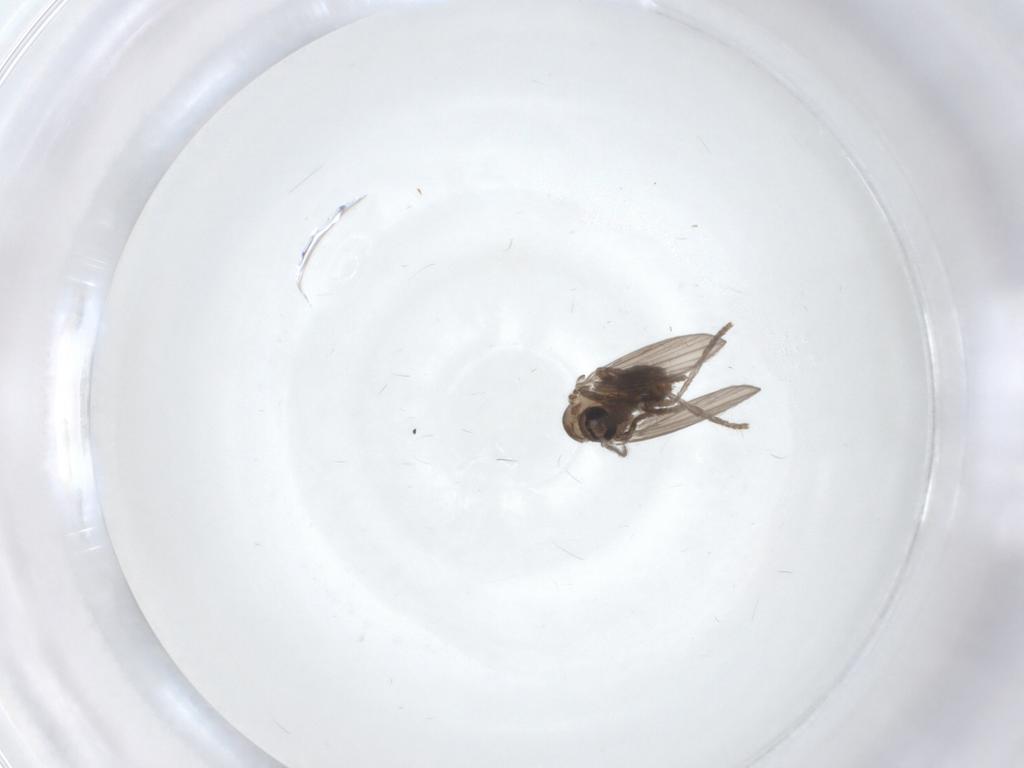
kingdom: Animalia
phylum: Arthropoda
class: Insecta
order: Diptera
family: Psychodidae
